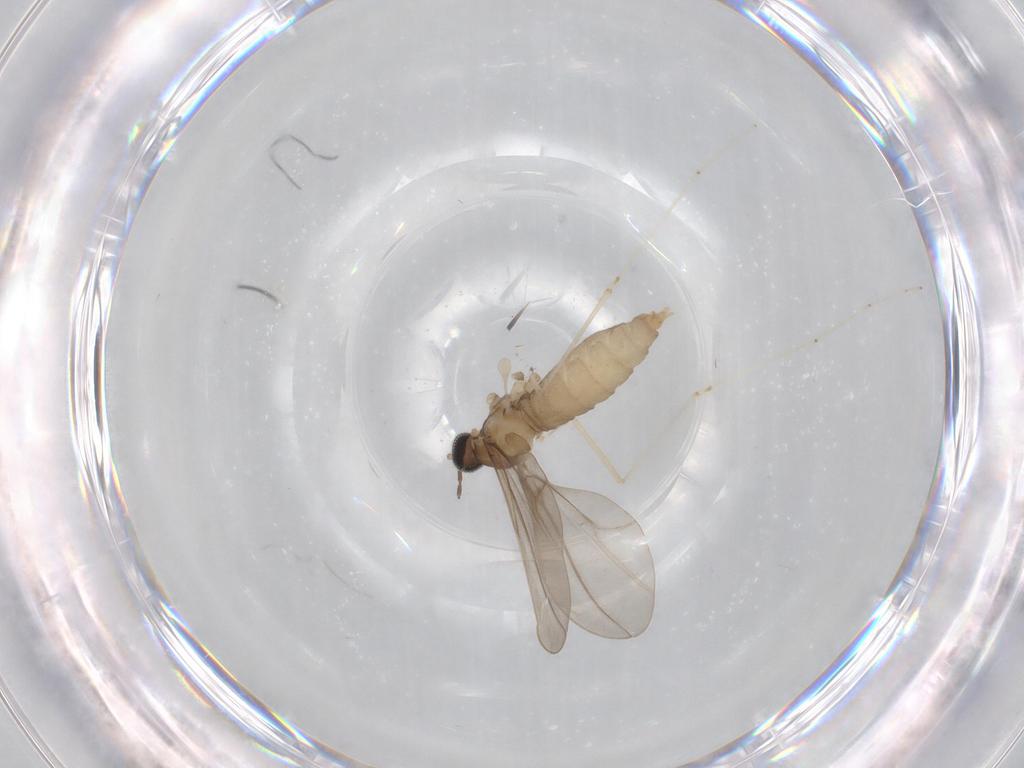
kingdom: Animalia
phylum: Arthropoda
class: Insecta
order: Diptera
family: Cecidomyiidae
